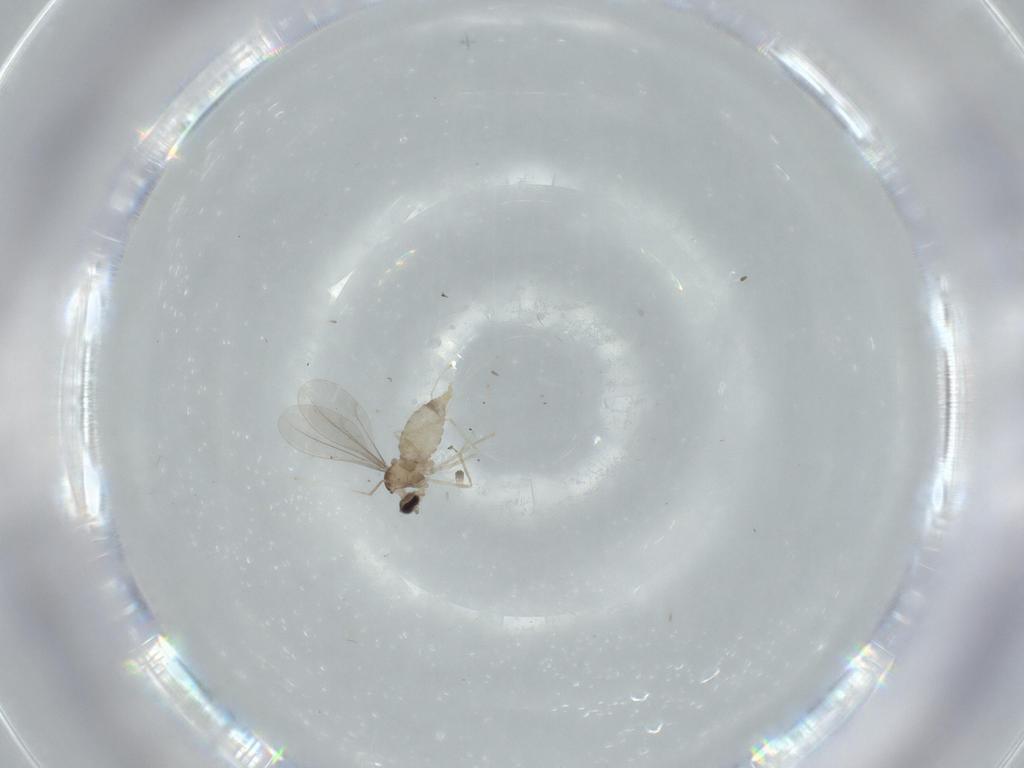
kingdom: Animalia
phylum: Arthropoda
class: Insecta
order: Diptera
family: Cecidomyiidae
